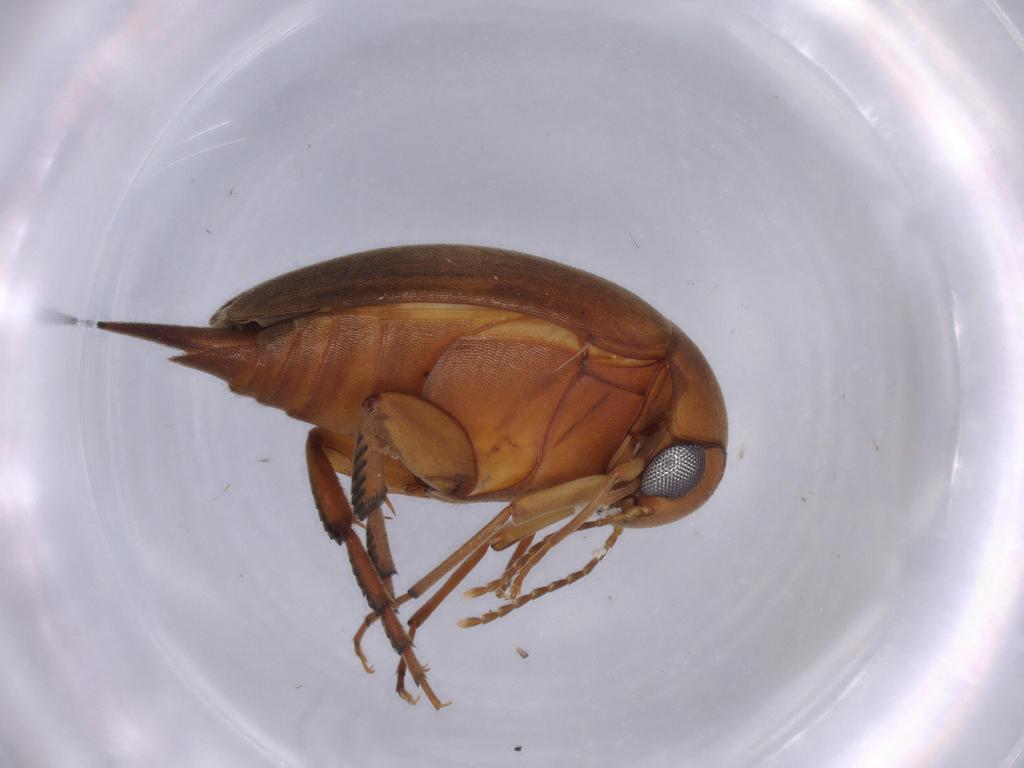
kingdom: Animalia
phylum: Arthropoda
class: Insecta
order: Coleoptera
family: Mordellidae
